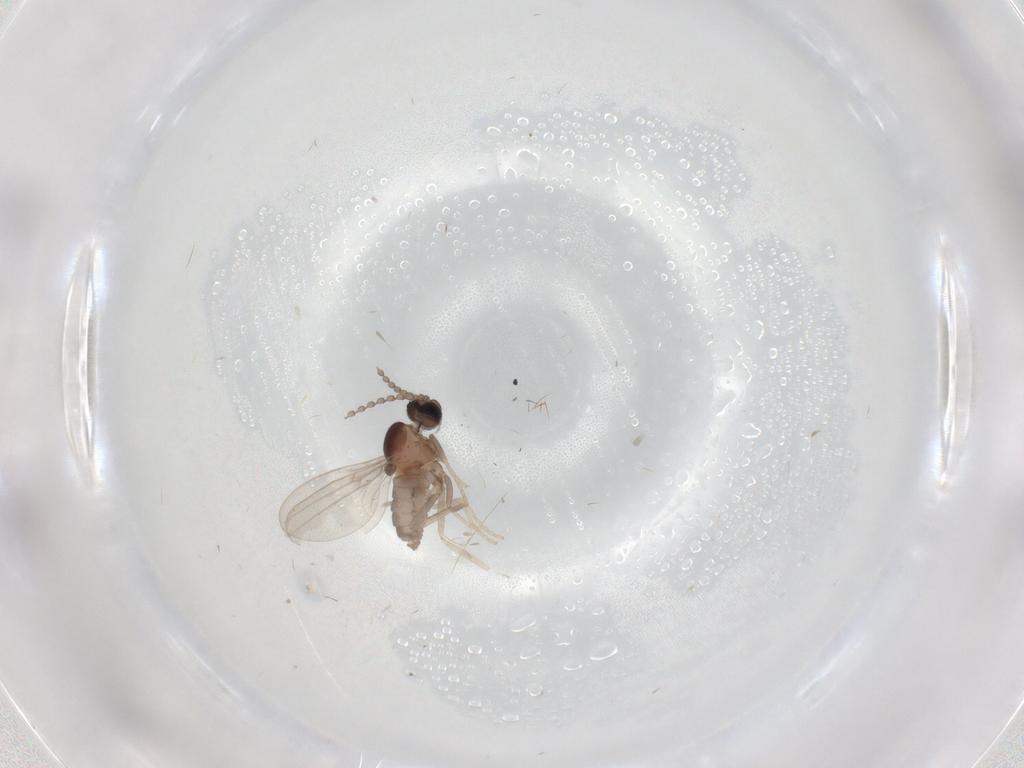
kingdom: Animalia
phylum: Arthropoda
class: Insecta
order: Diptera
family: Cecidomyiidae
